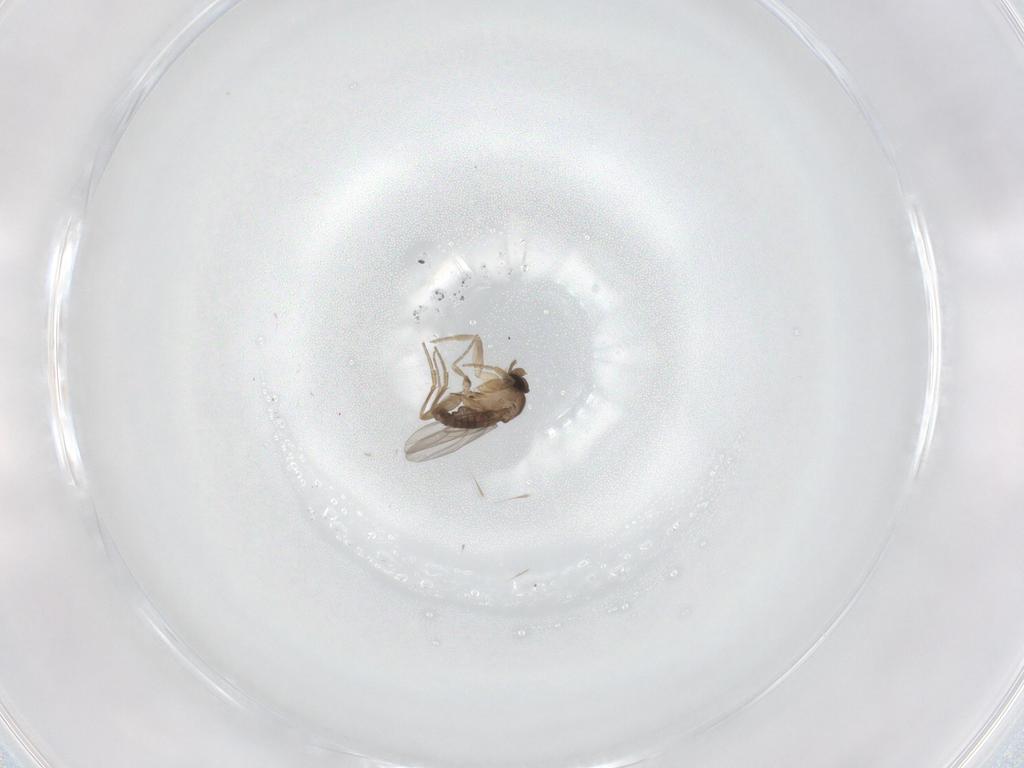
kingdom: Animalia
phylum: Arthropoda
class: Insecta
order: Diptera
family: Phoridae
